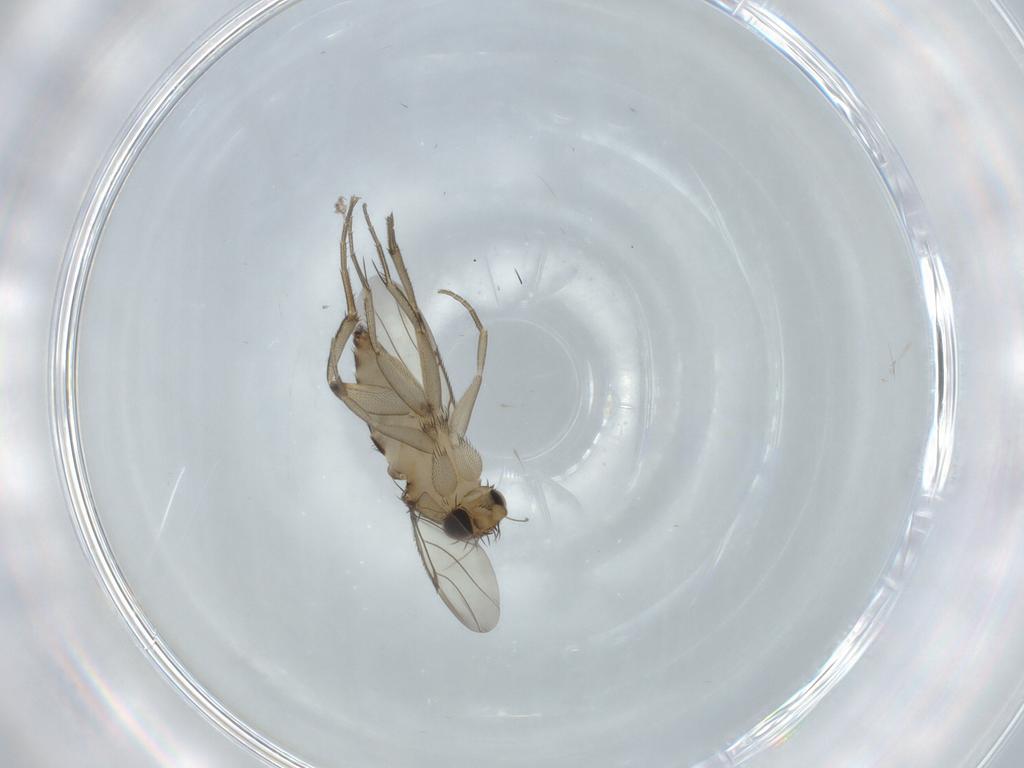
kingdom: Animalia
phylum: Arthropoda
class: Insecta
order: Diptera
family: Phoridae
